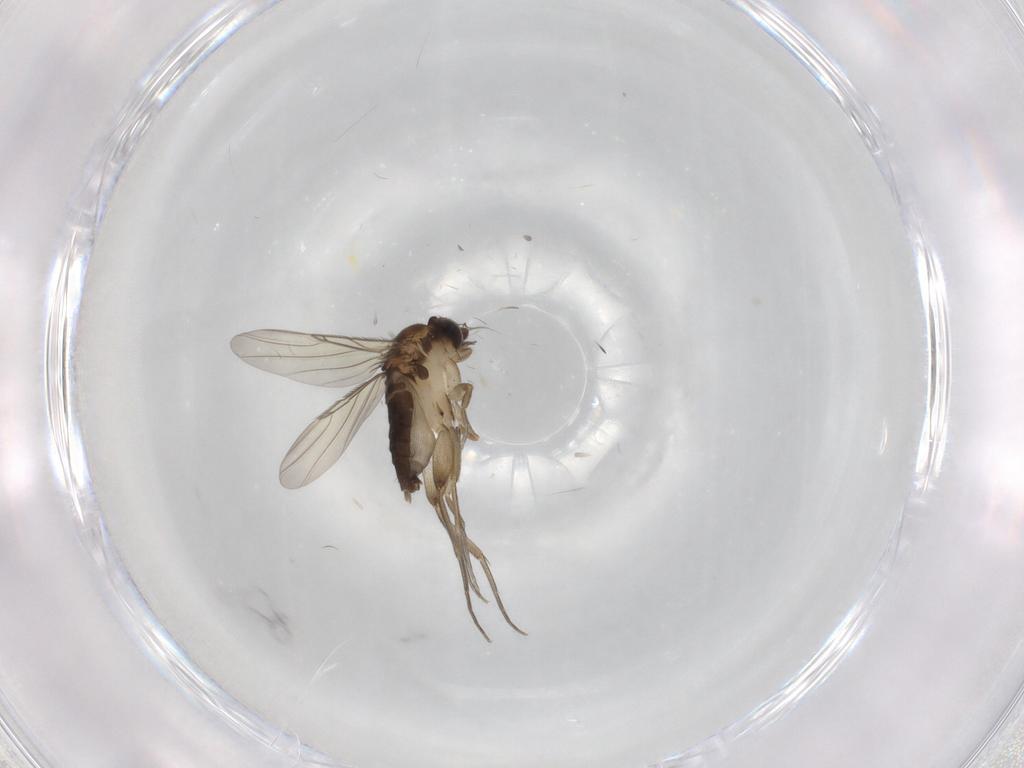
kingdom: Animalia
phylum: Arthropoda
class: Insecta
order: Diptera
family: Phoridae
